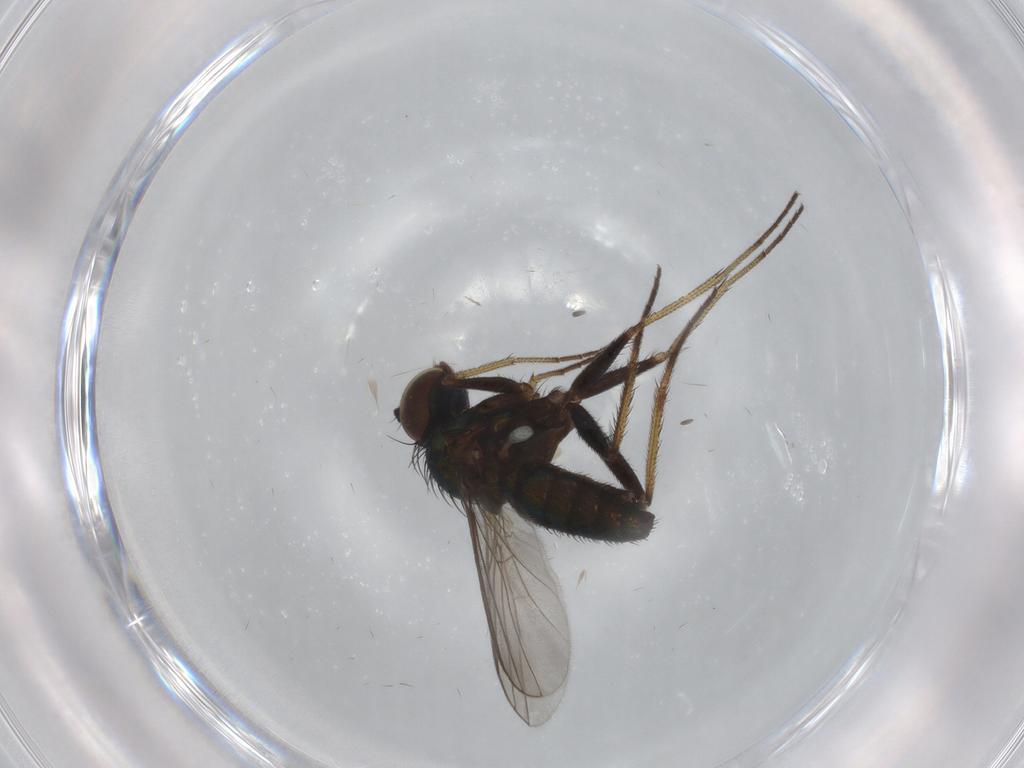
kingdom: Animalia
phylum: Arthropoda
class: Insecta
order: Diptera
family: Dolichopodidae
